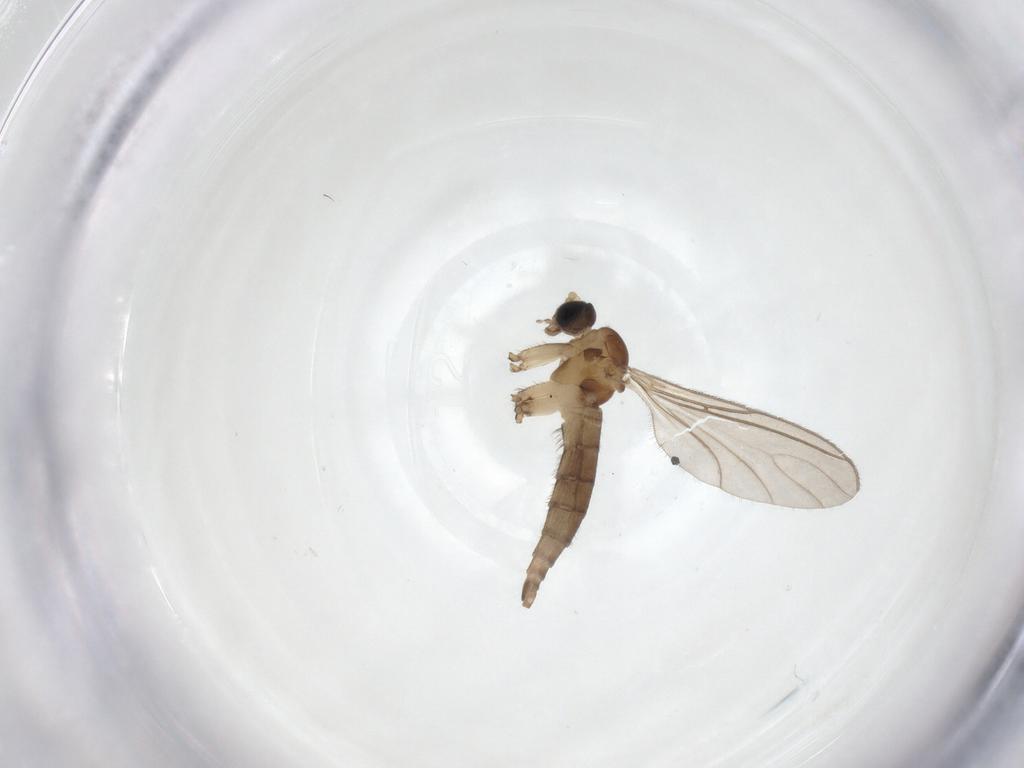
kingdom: Animalia
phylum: Arthropoda
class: Insecta
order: Diptera
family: Sciaridae
